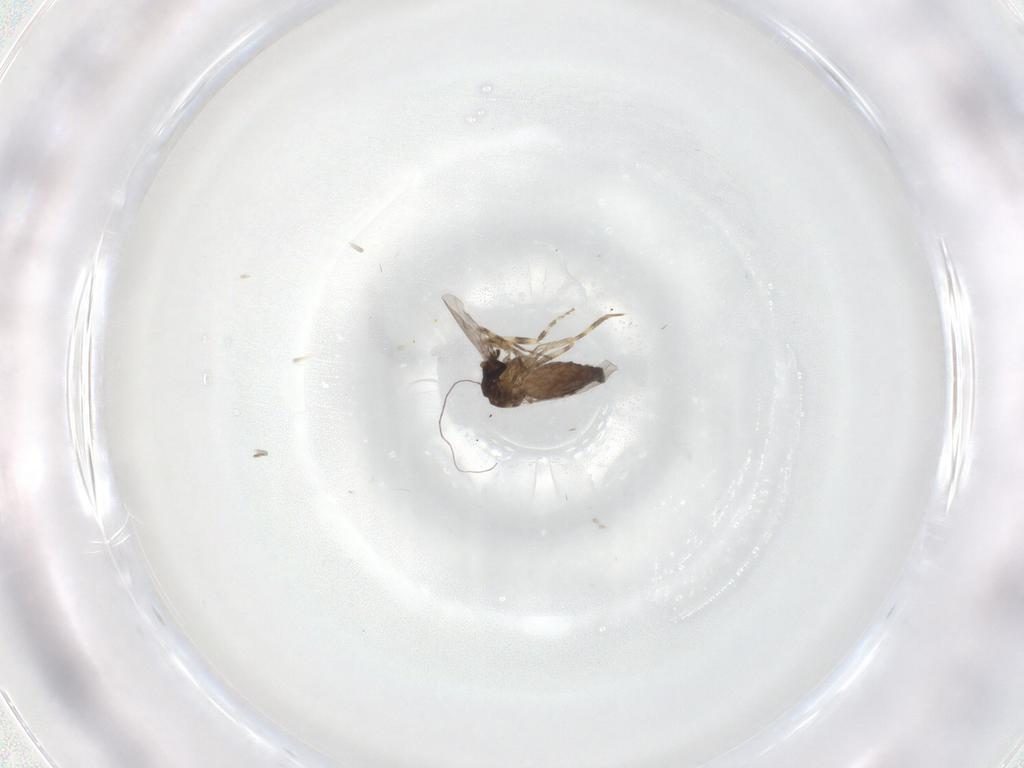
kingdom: Animalia
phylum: Arthropoda
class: Insecta
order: Diptera
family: Ceratopogonidae
